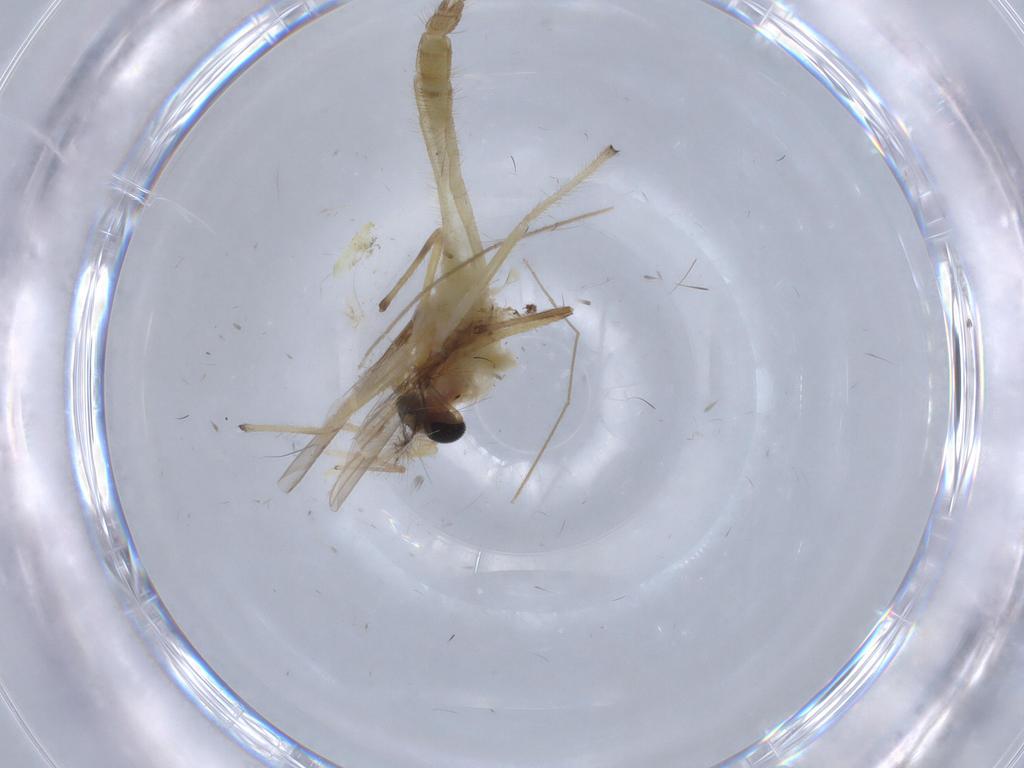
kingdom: Animalia
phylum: Arthropoda
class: Insecta
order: Diptera
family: Chironomidae
